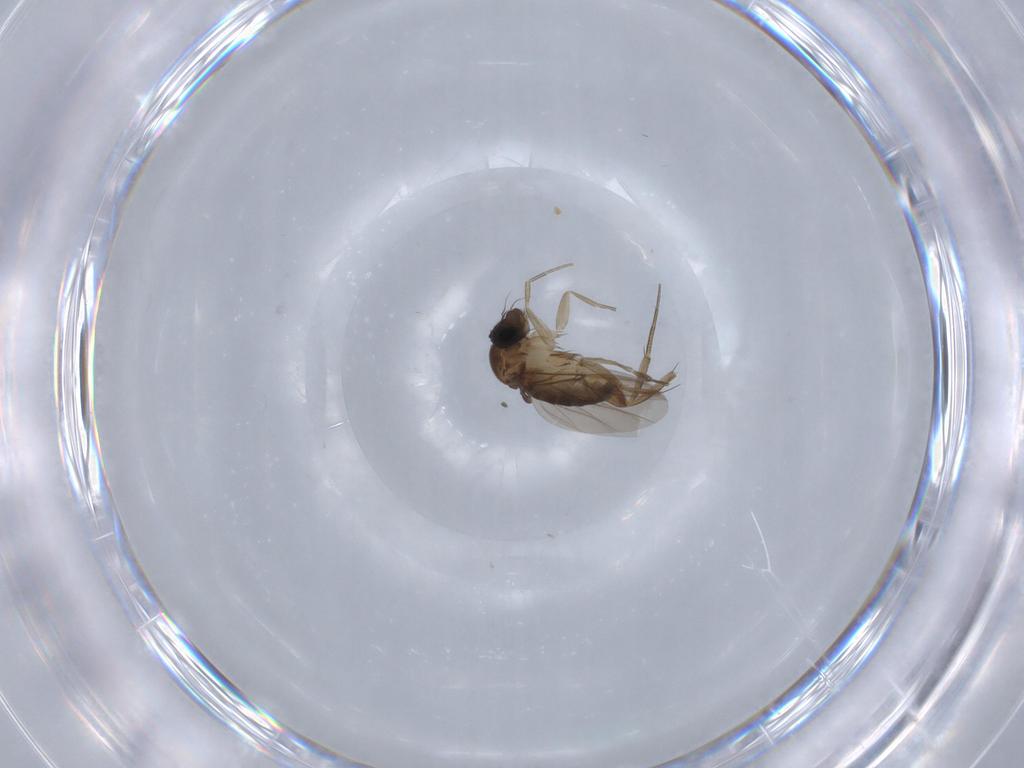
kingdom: Animalia
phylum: Arthropoda
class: Insecta
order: Diptera
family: Phoridae
